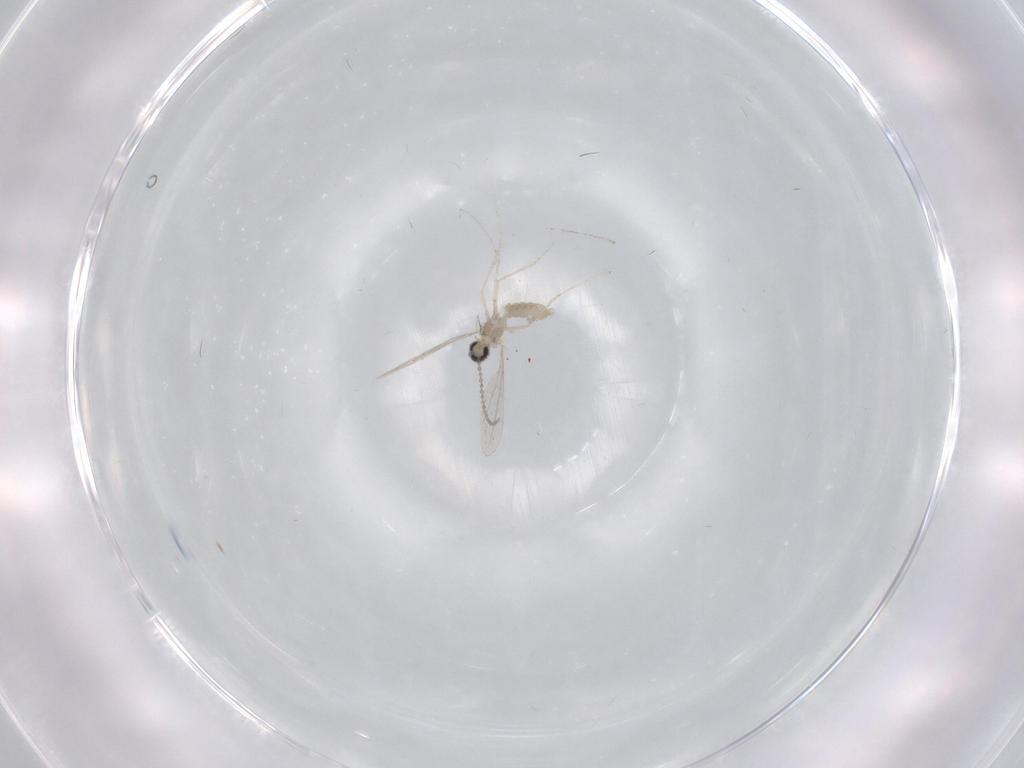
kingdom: Animalia
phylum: Arthropoda
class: Insecta
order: Diptera
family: Cecidomyiidae
